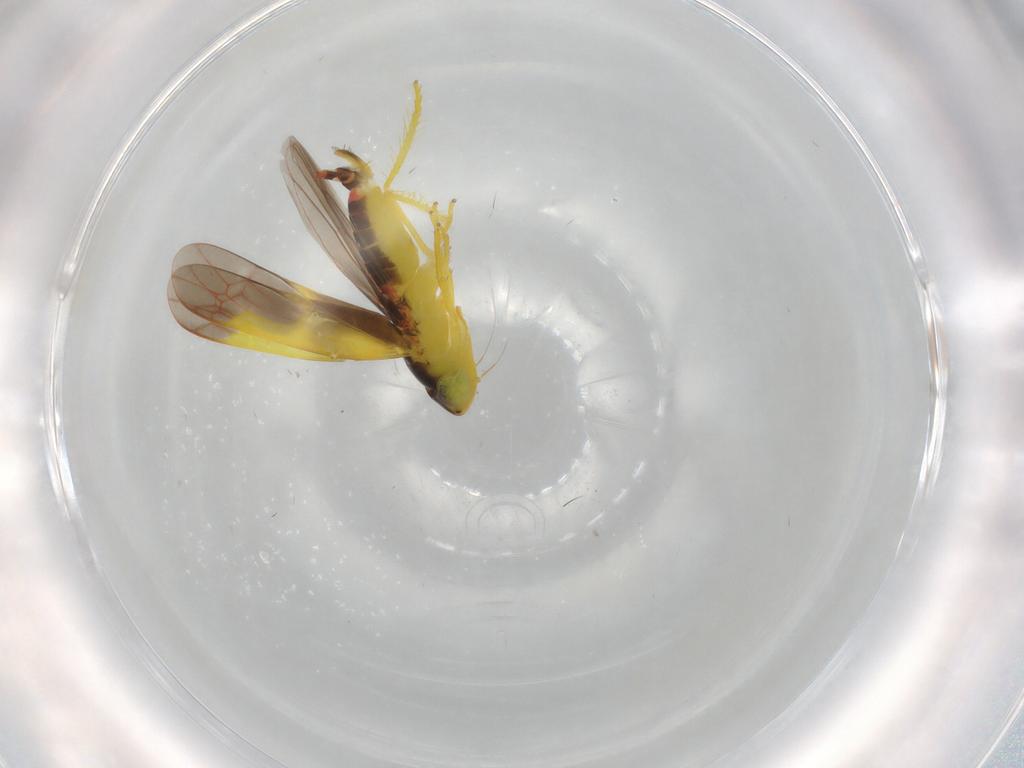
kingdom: Animalia
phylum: Arthropoda
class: Insecta
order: Hemiptera
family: Cicadellidae
